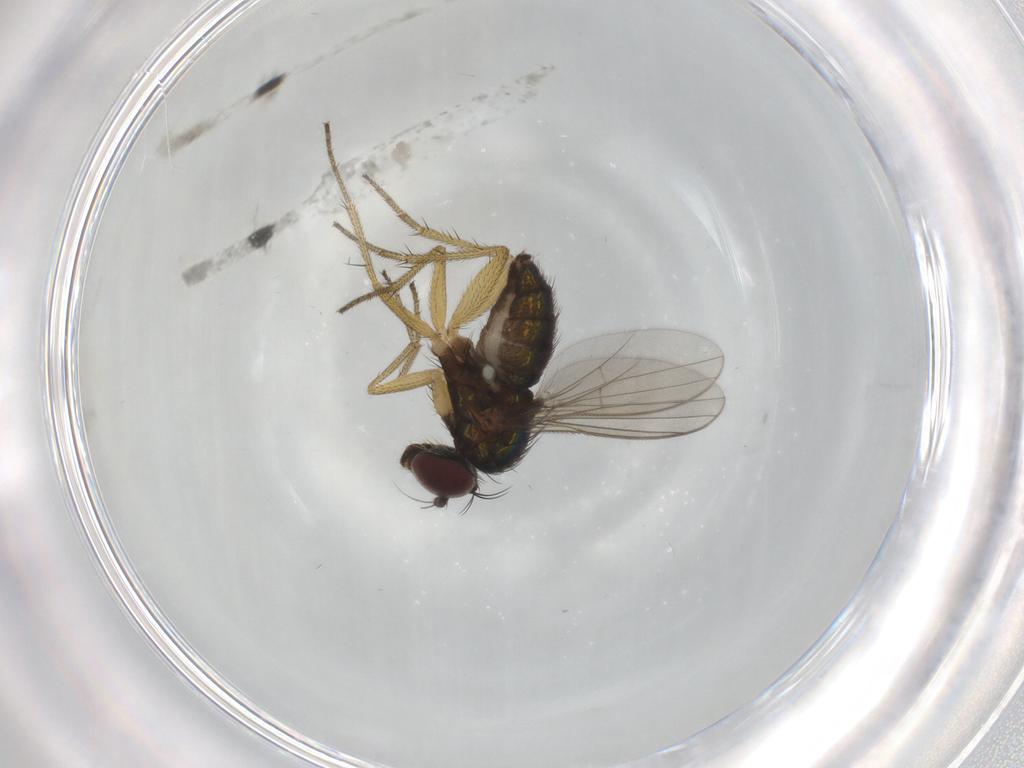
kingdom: Animalia
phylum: Arthropoda
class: Insecta
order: Diptera
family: Dolichopodidae
